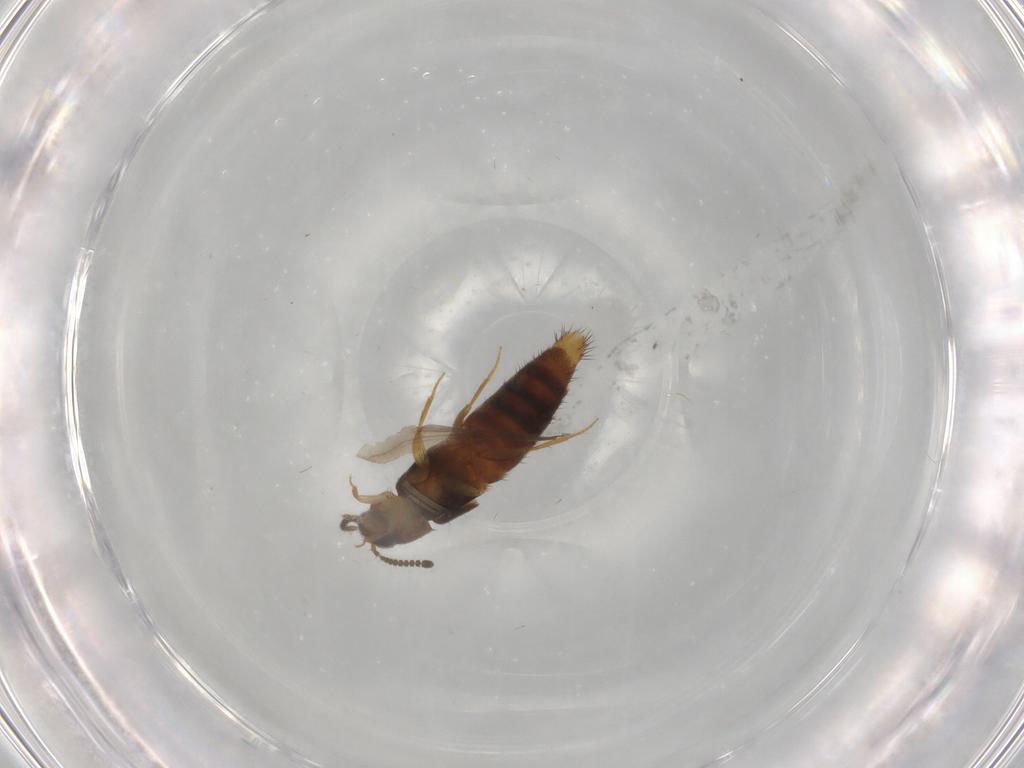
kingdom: Animalia
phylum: Arthropoda
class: Insecta
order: Coleoptera
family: Staphylinidae
